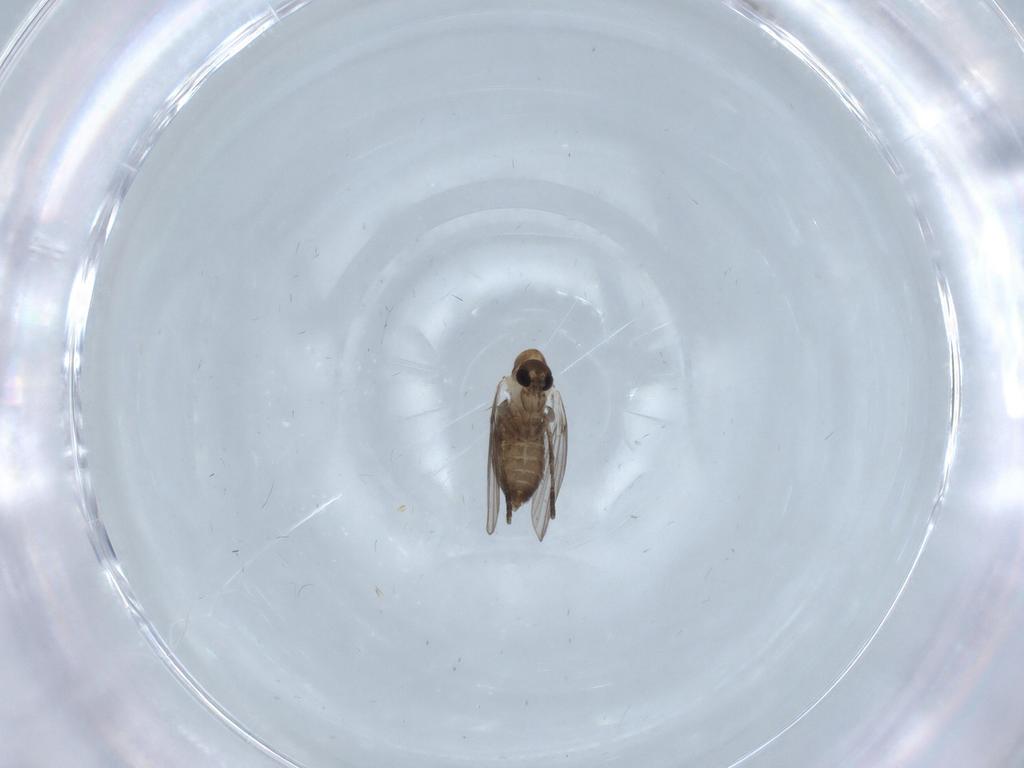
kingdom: Animalia
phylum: Arthropoda
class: Insecta
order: Diptera
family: Psychodidae
